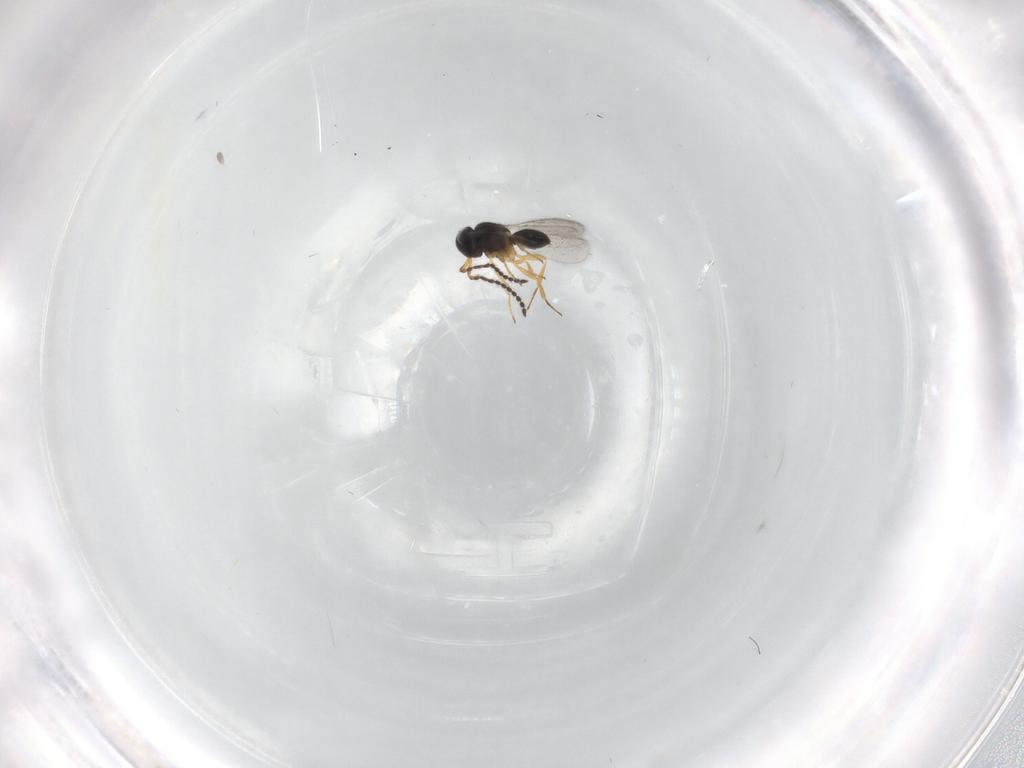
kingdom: Animalia
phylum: Arthropoda
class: Insecta
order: Hymenoptera
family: Scelionidae
